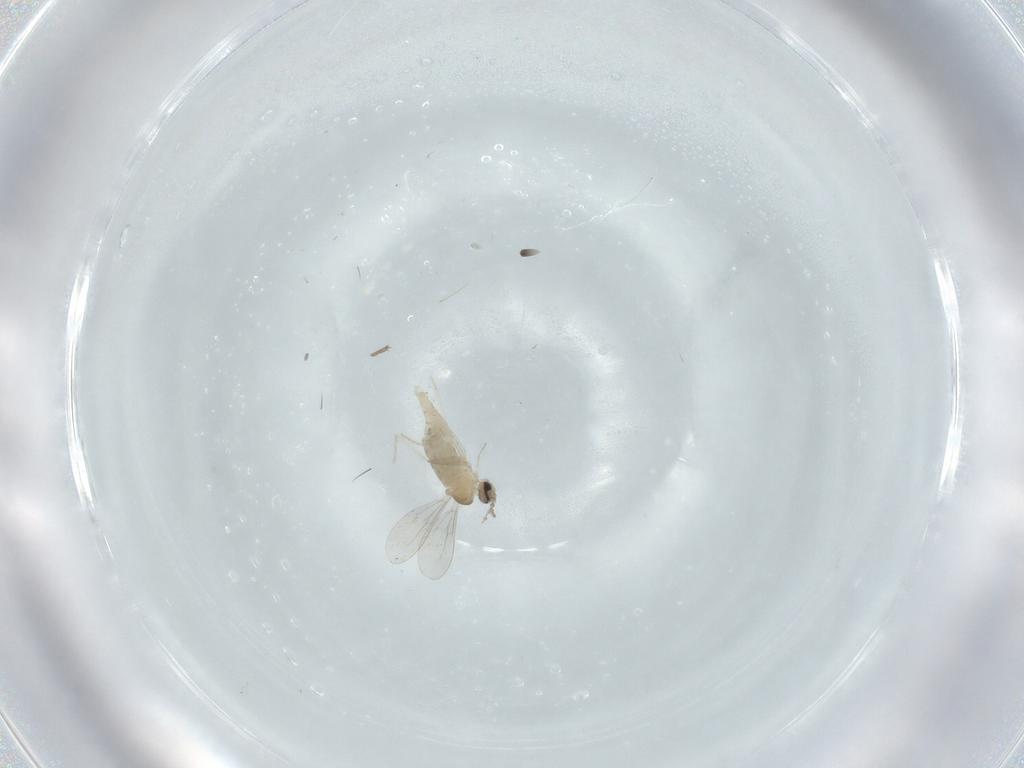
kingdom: Animalia
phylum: Arthropoda
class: Insecta
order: Diptera
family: Cecidomyiidae
